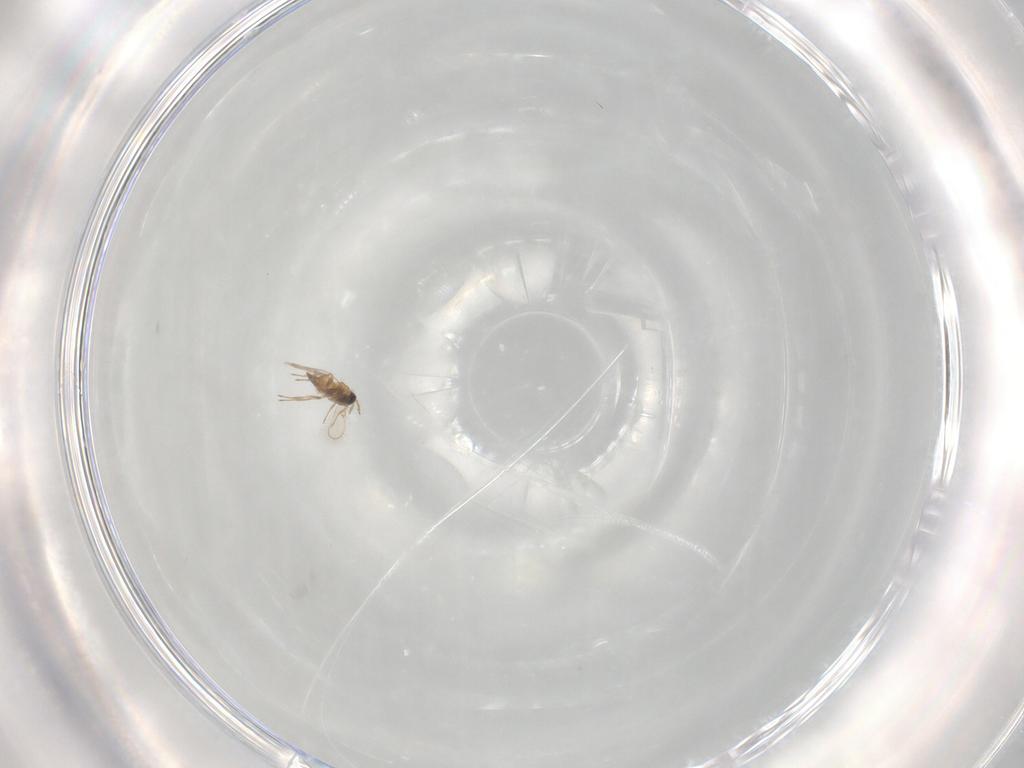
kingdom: Animalia
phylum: Arthropoda
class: Insecta
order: Hymenoptera
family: Trichogrammatidae
